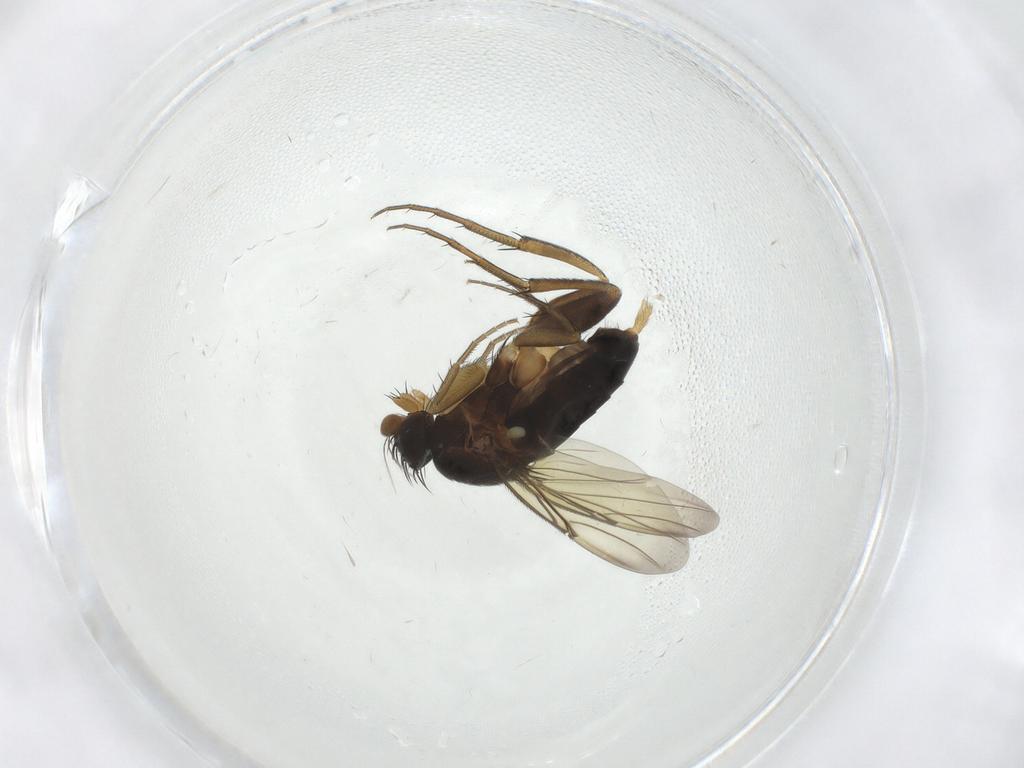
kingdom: Animalia
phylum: Arthropoda
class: Insecta
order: Diptera
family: Phoridae
